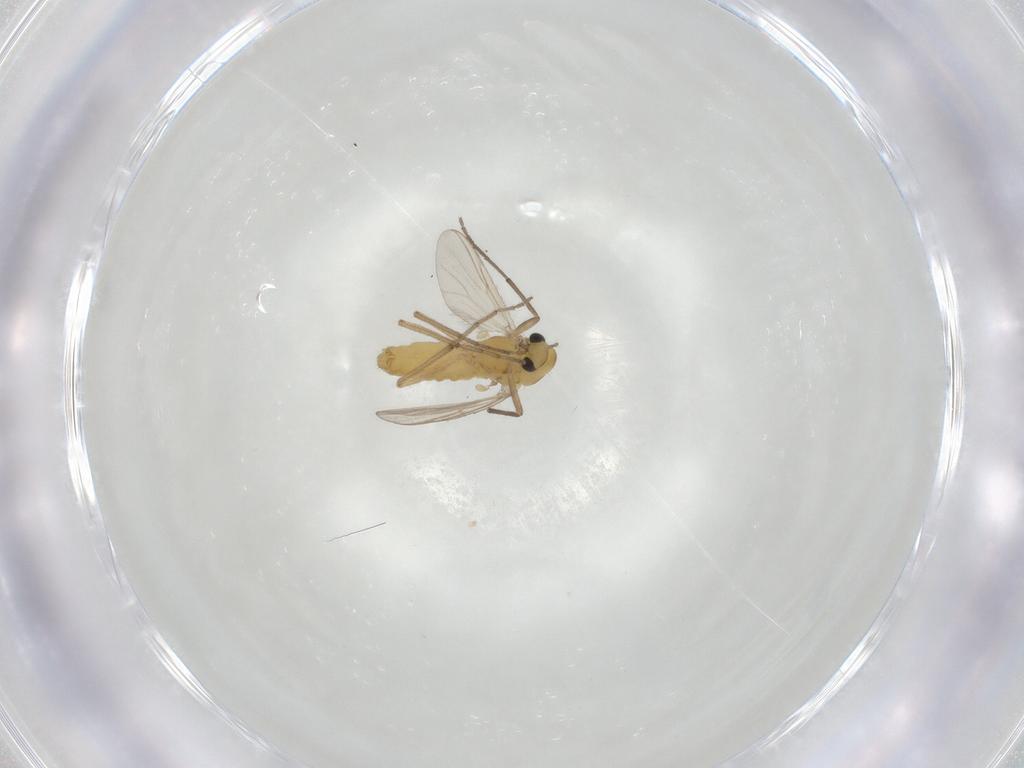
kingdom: Animalia
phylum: Arthropoda
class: Insecta
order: Diptera
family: Chironomidae
